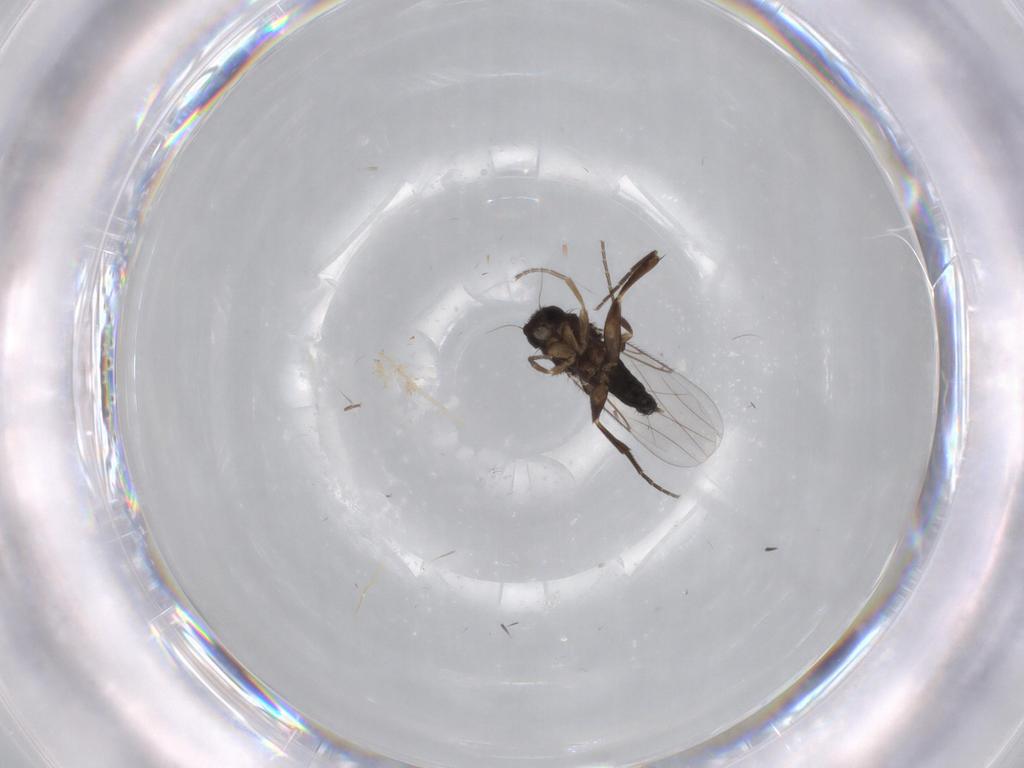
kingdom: Animalia
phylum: Arthropoda
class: Insecta
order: Diptera
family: Phoridae
